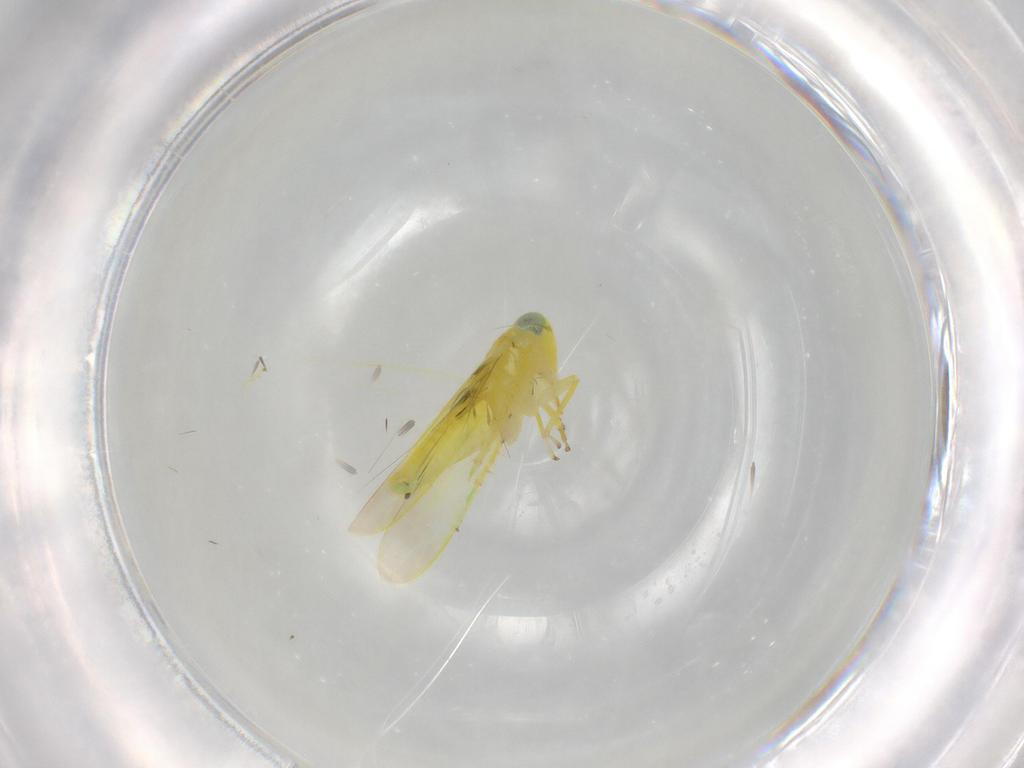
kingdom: Animalia
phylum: Arthropoda
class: Insecta
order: Hemiptera
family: Cicadellidae
